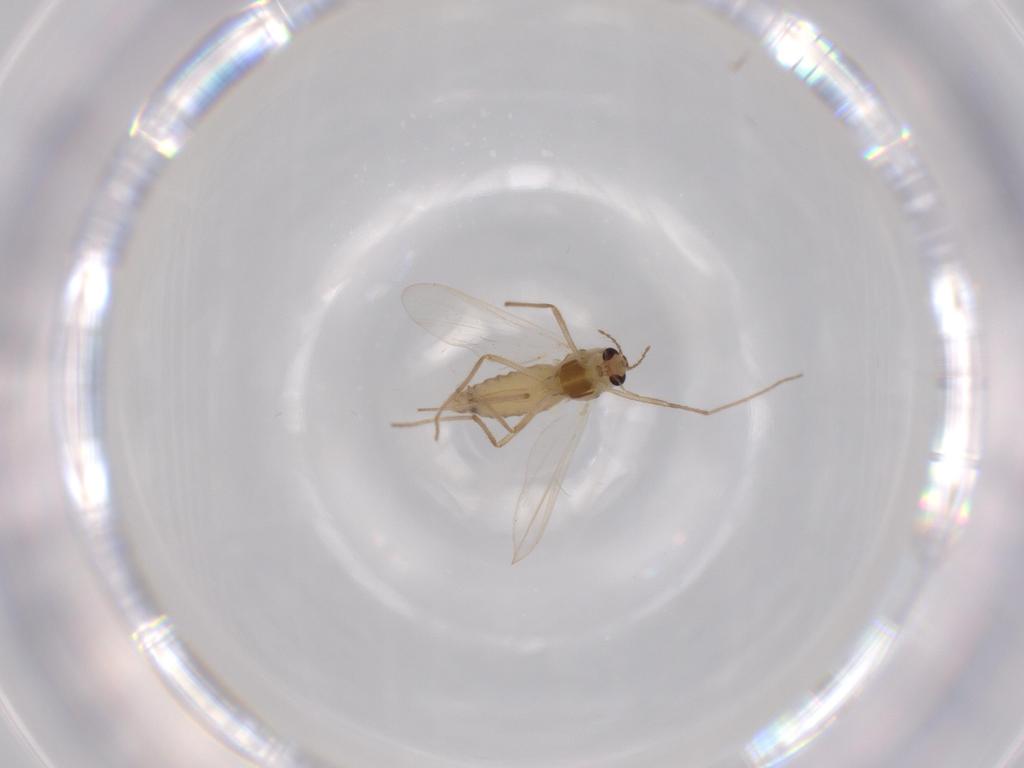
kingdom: Animalia
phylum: Arthropoda
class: Insecta
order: Diptera
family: Chironomidae
